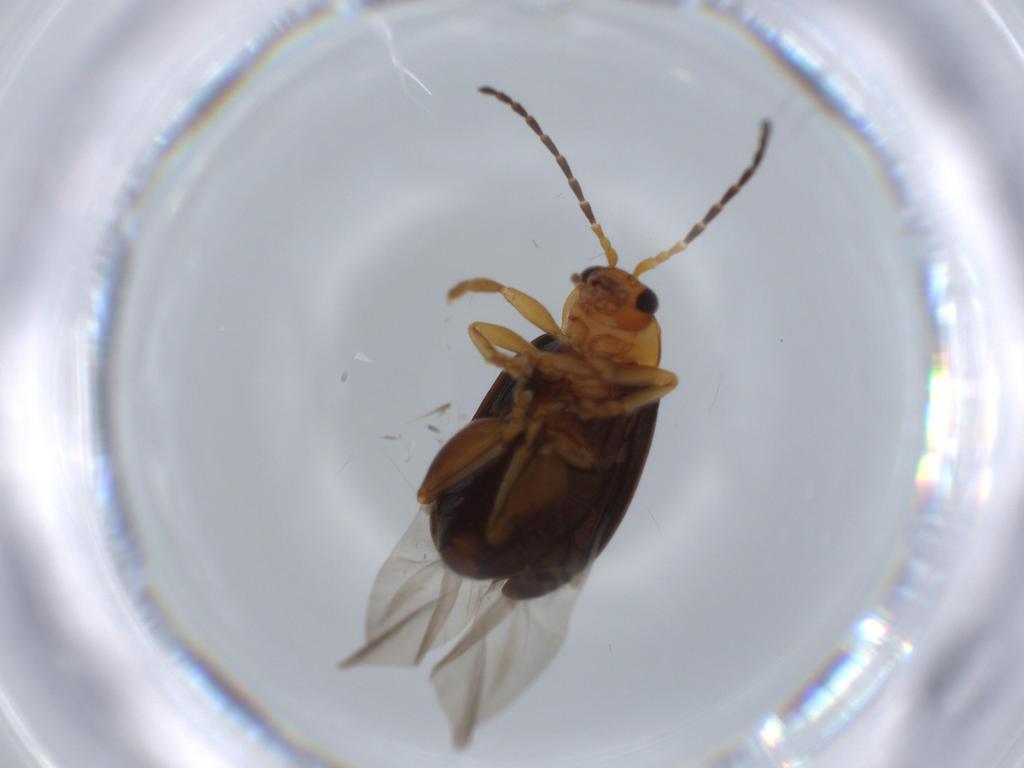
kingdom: Animalia
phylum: Arthropoda
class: Insecta
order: Coleoptera
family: Chrysomelidae
